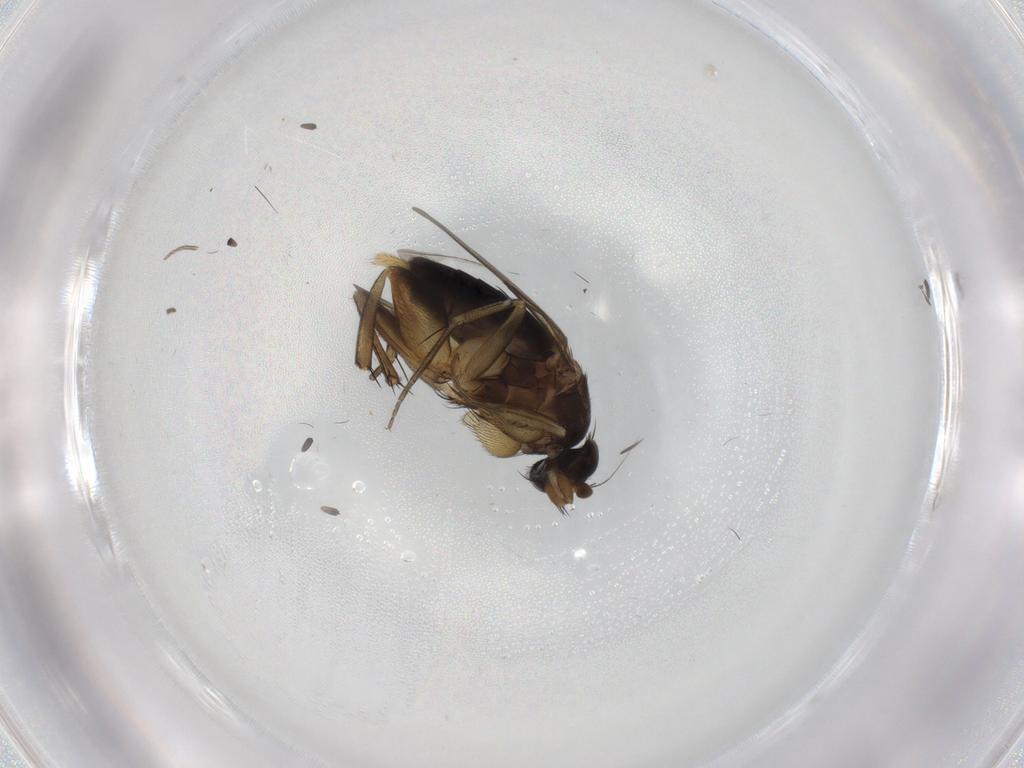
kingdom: Animalia
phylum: Arthropoda
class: Insecta
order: Diptera
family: Phoridae
